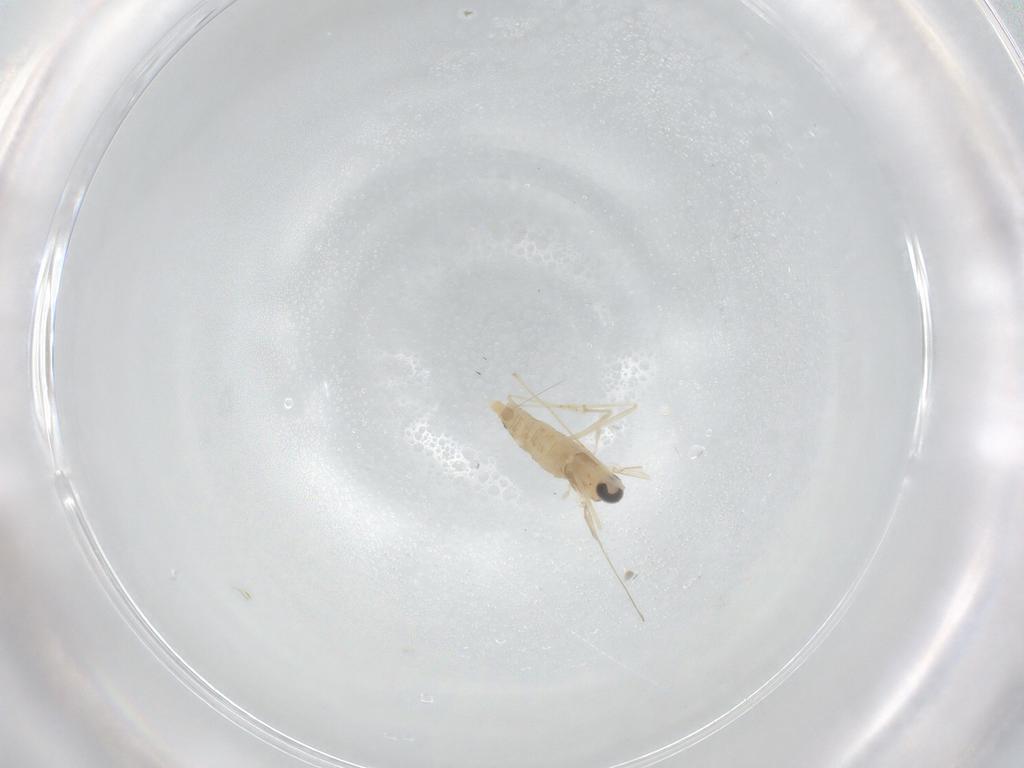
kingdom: Animalia
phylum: Arthropoda
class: Insecta
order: Diptera
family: Cecidomyiidae
